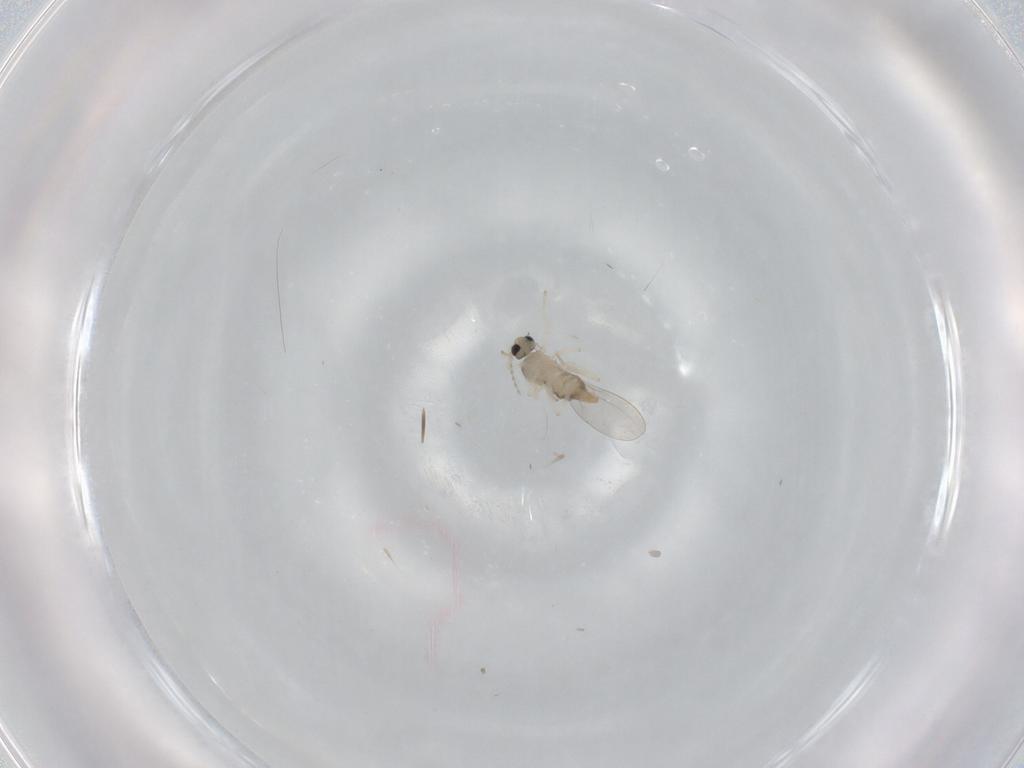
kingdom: Animalia
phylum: Arthropoda
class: Insecta
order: Diptera
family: Cecidomyiidae
